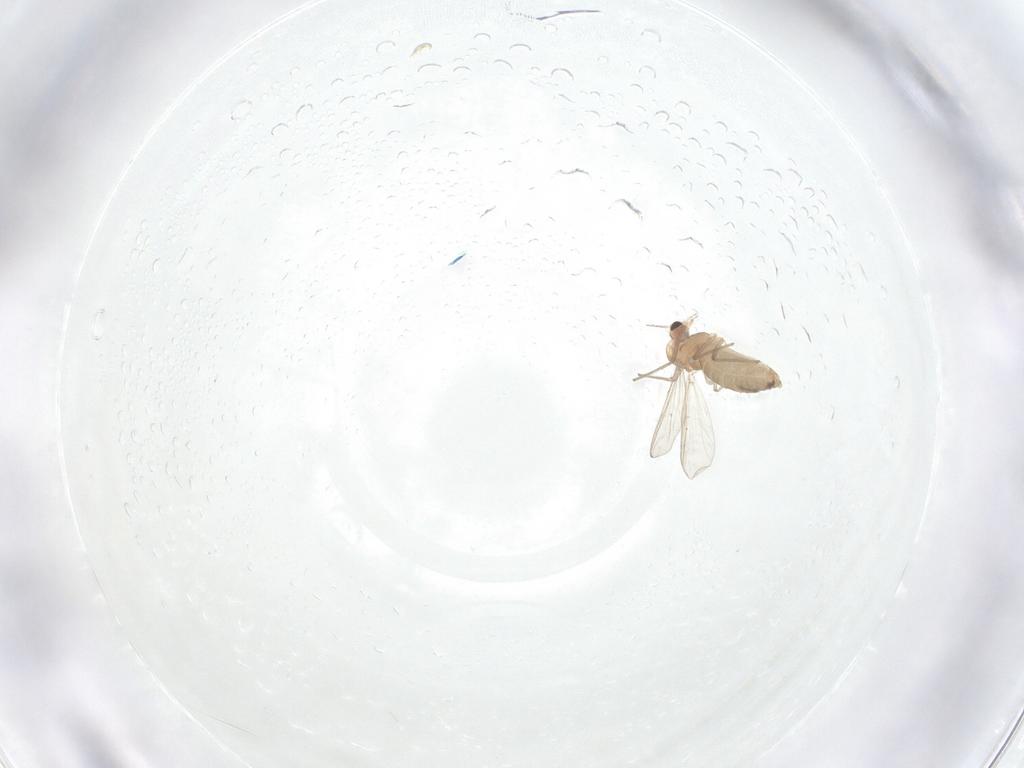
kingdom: Animalia
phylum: Arthropoda
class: Insecta
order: Diptera
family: Chironomidae
